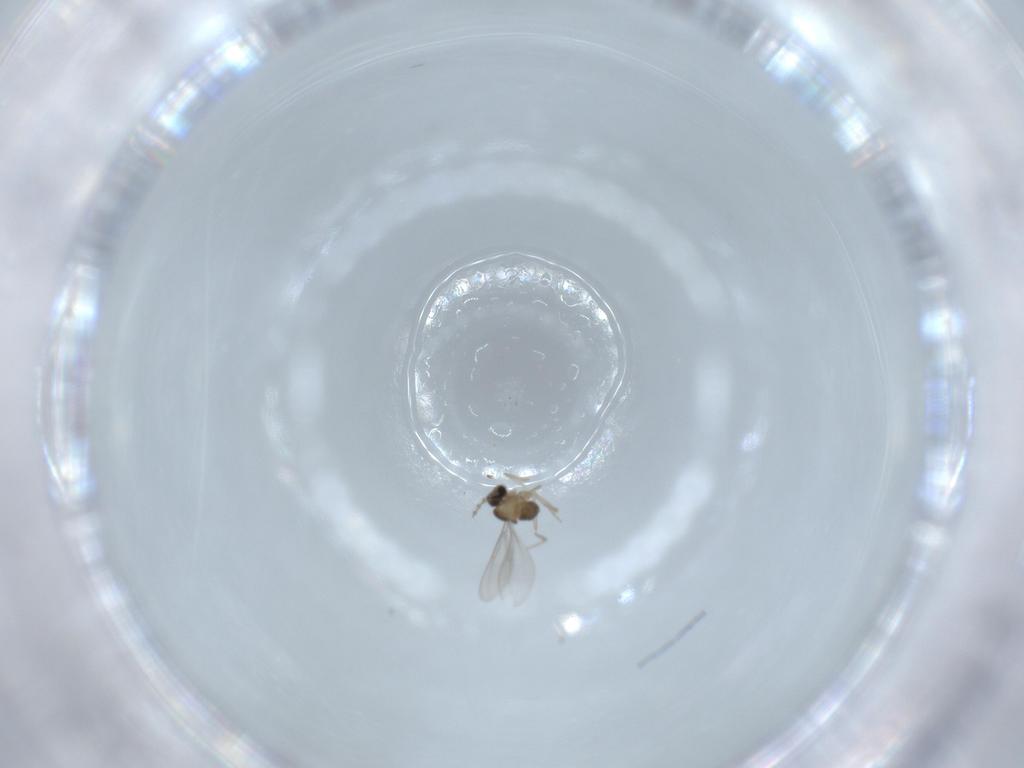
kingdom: Animalia
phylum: Arthropoda
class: Insecta
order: Diptera
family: Cecidomyiidae
